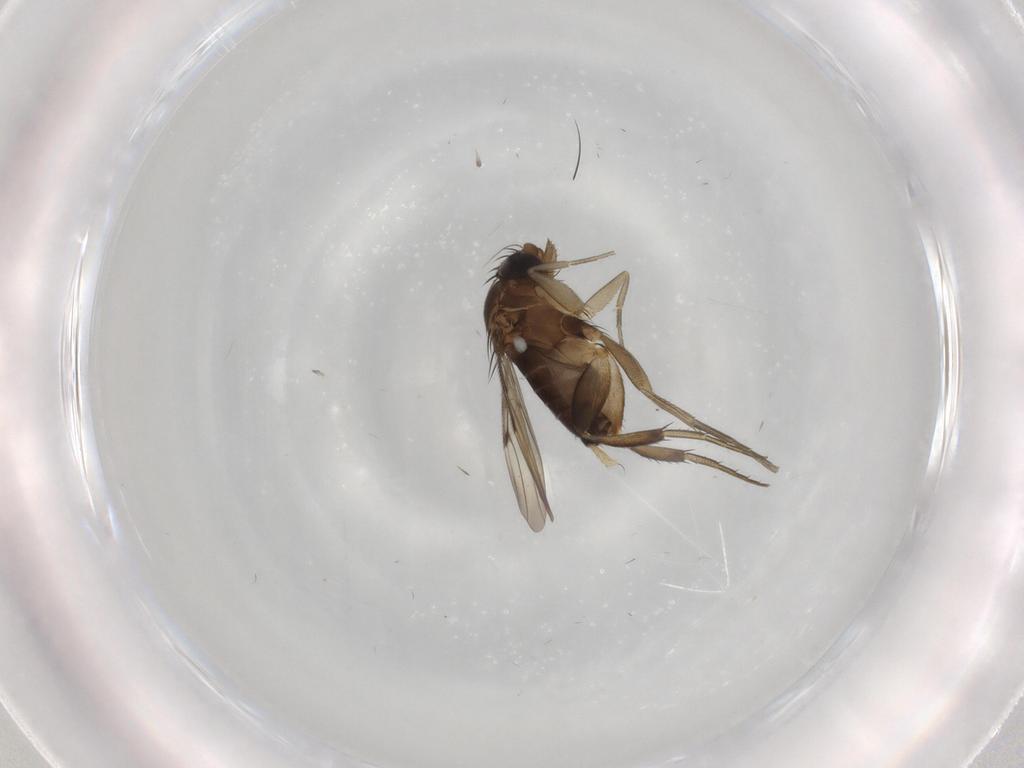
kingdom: Animalia
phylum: Arthropoda
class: Insecta
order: Diptera
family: Phoridae
